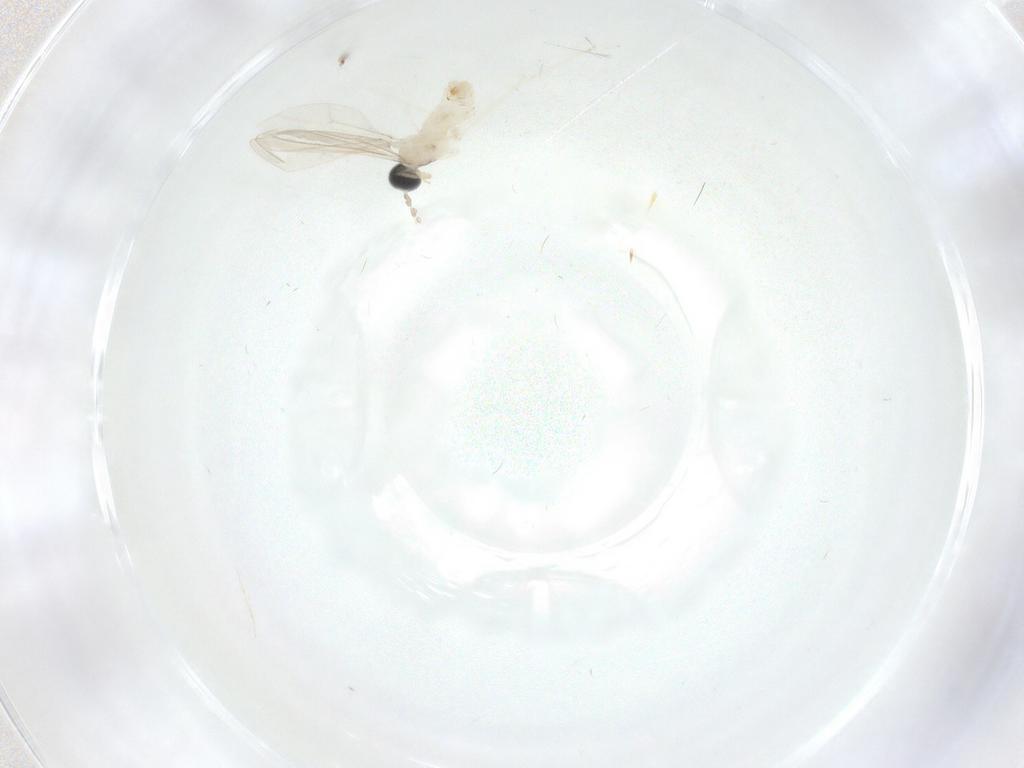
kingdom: Animalia
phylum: Arthropoda
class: Insecta
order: Diptera
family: Cecidomyiidae
